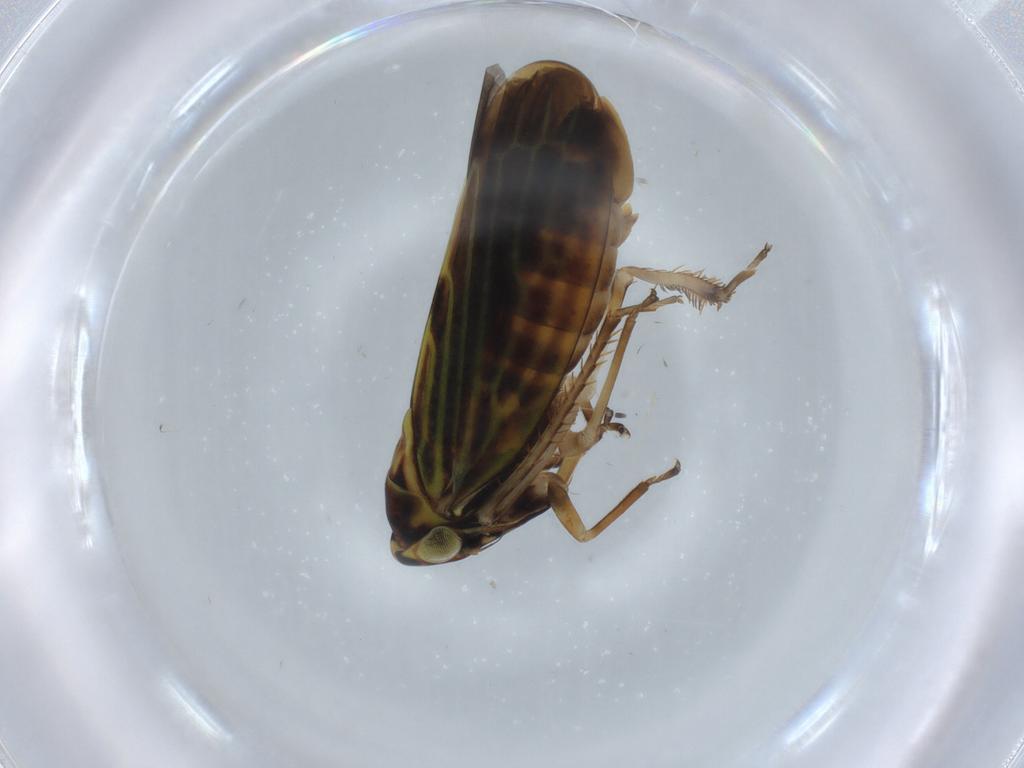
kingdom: Animalia
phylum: Arthropoda
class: Insecta
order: Hemiptera
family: Cicadellidae
